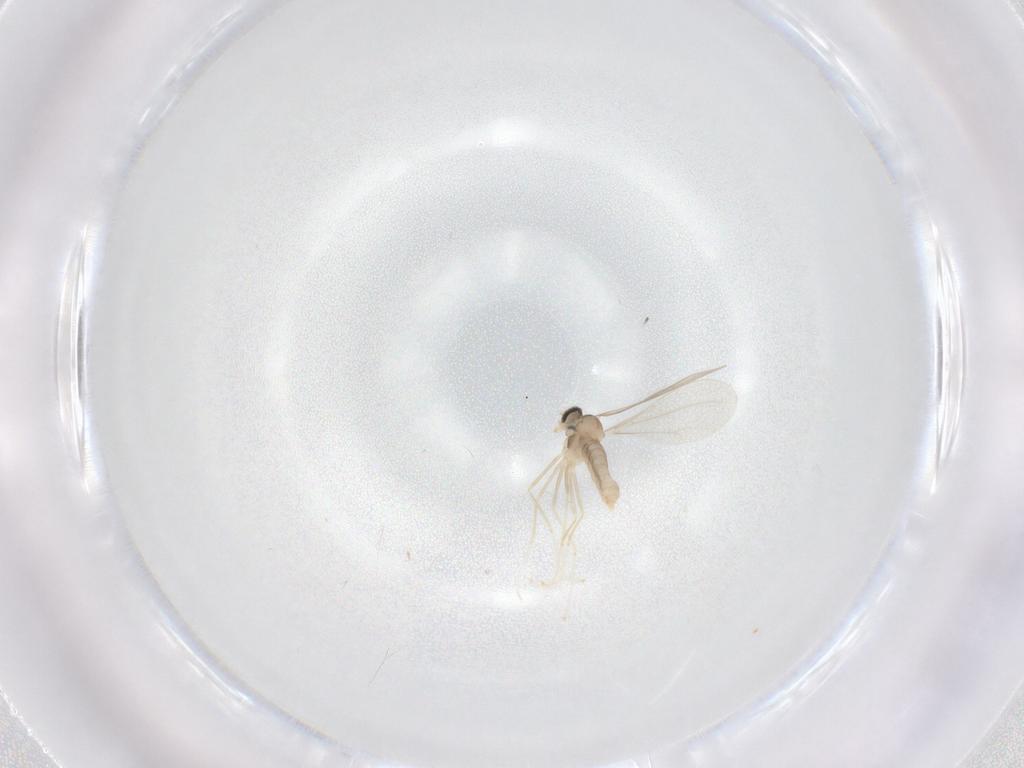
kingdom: Animalia
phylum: Arthropoda
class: Insecta
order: Diptera
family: Cecidomyiidae
